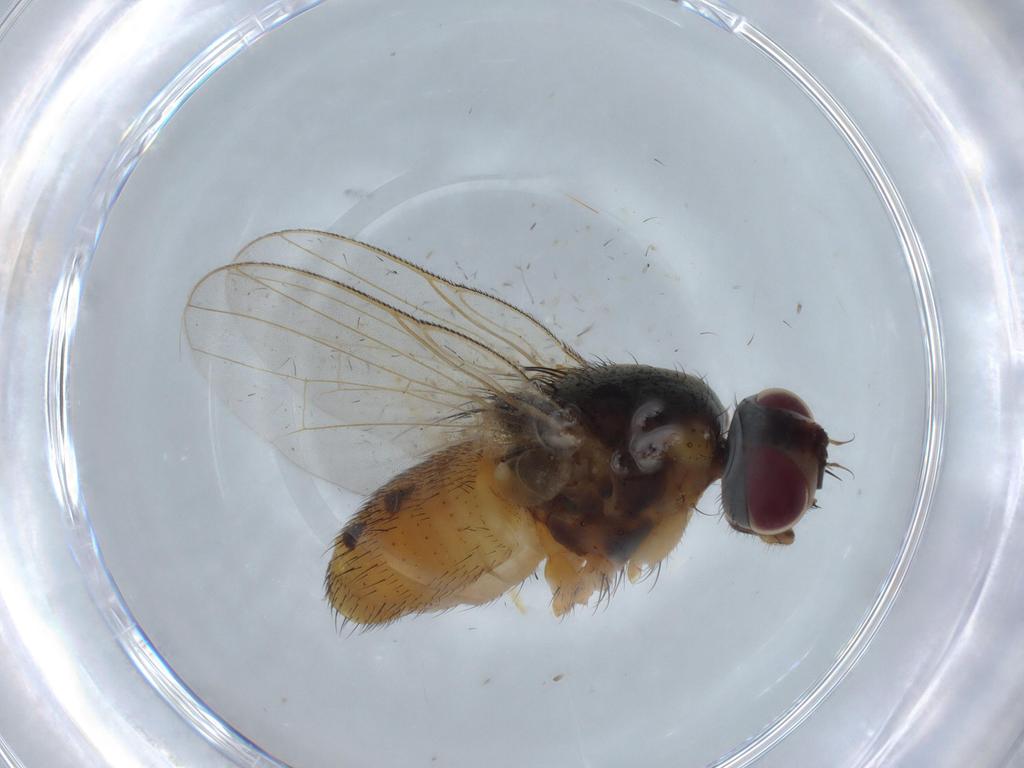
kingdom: Animalia
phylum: Arthropoda
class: Insecta
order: Diptera
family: Muscidae
